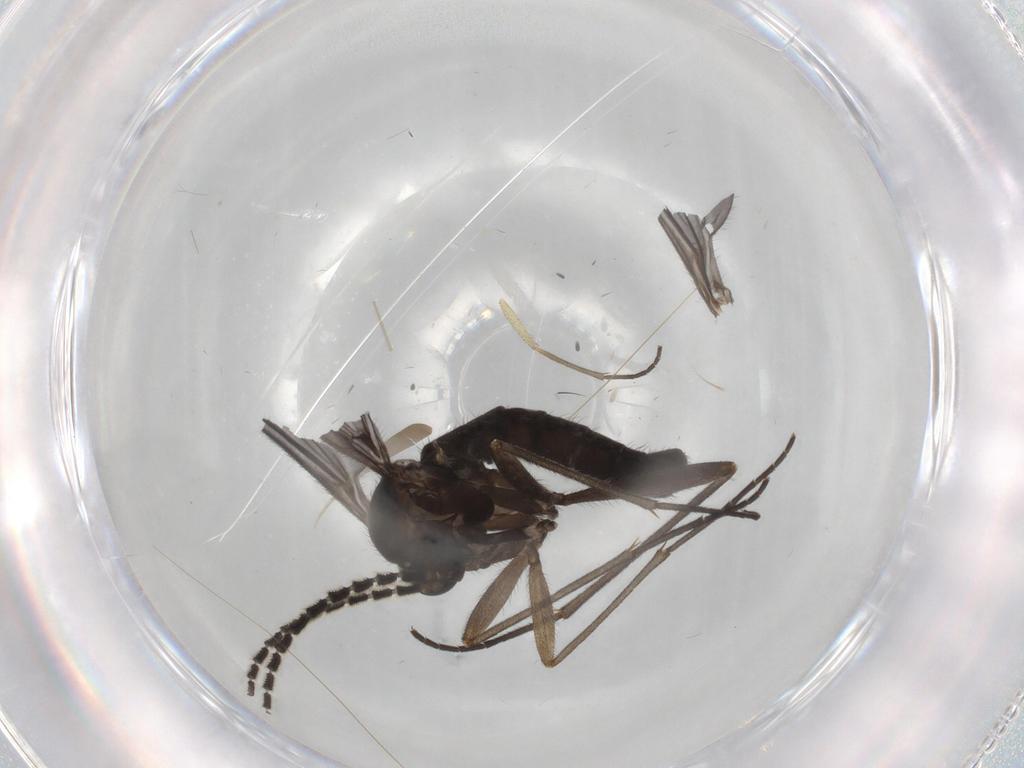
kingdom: Animalia
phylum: Arthropoda
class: Insecta
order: Diptera
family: Sciaridae
